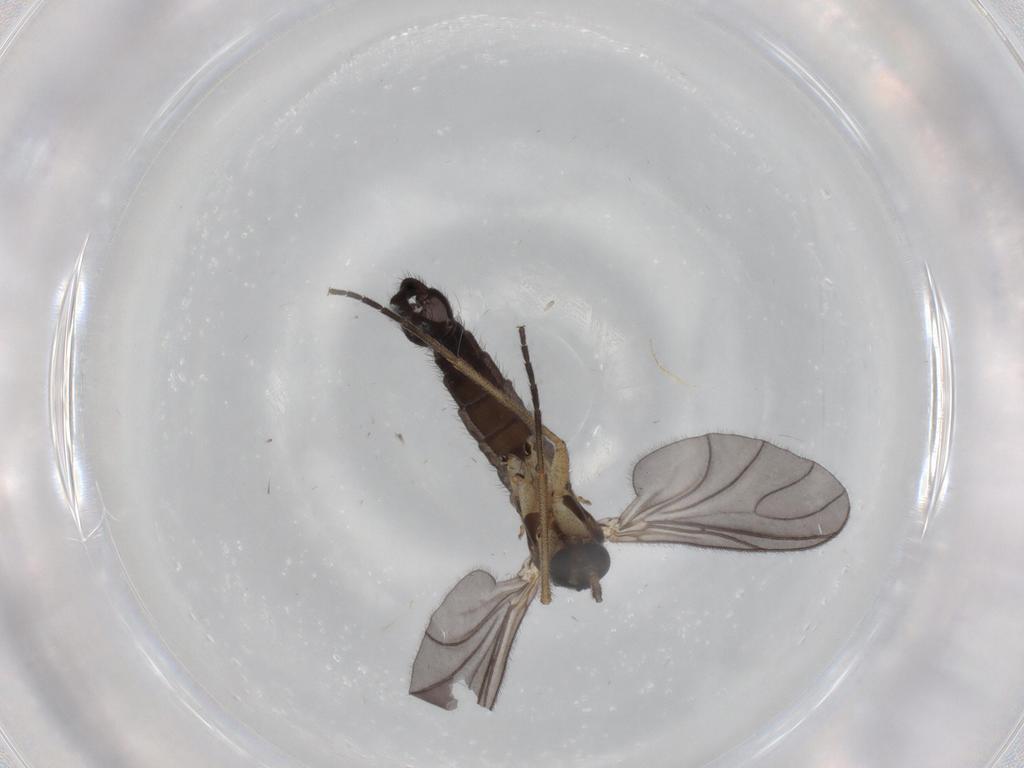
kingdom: Animalia
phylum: Arthropoda
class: Insecta
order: Diptera
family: Sciaridae
